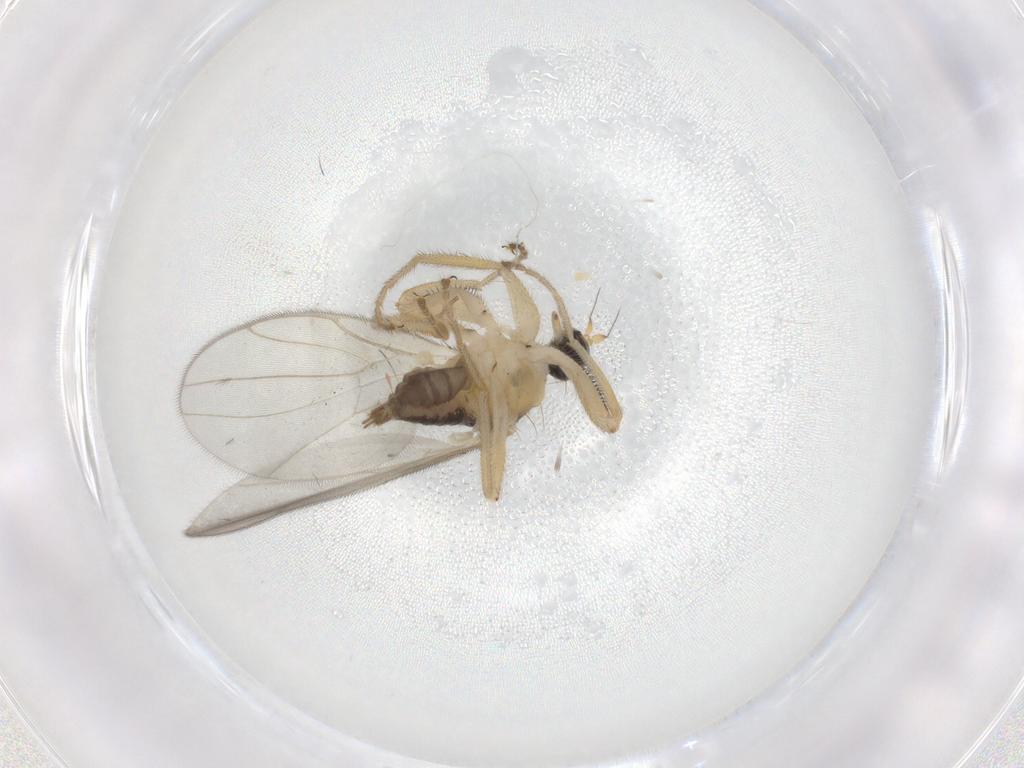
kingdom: Animalia
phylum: Arthropoda
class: Insecta
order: Diptera
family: Hybotidae
